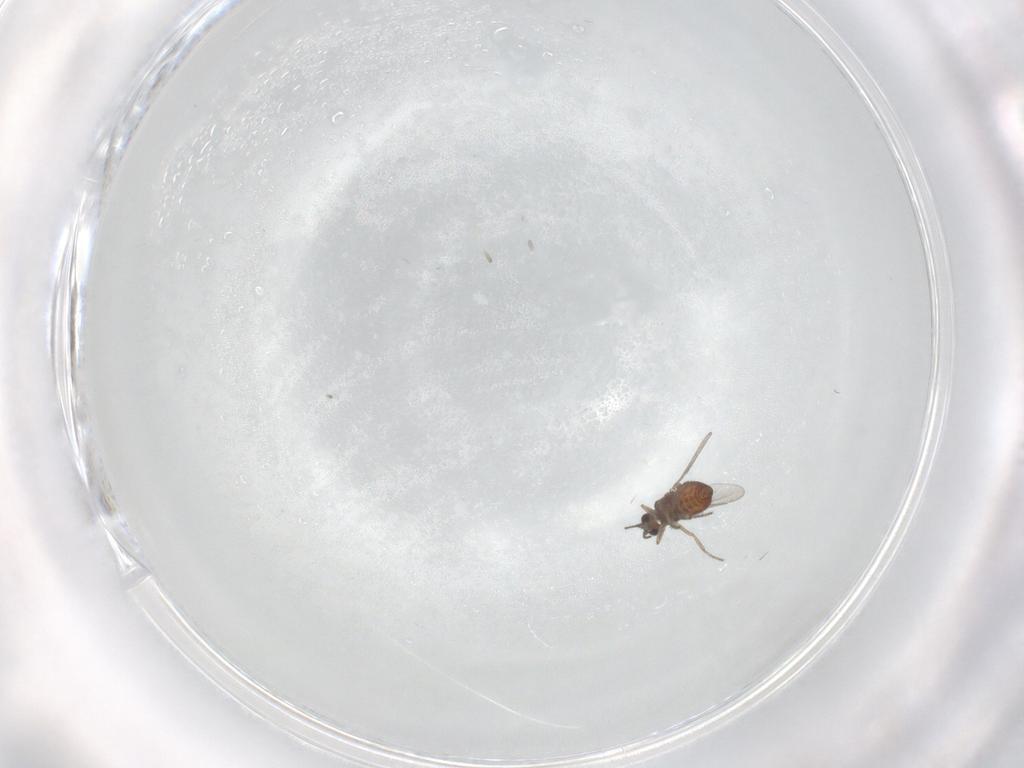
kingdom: Animalia
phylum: Arthropoda
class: Insecta
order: Diptera
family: Ceratopogonidae
